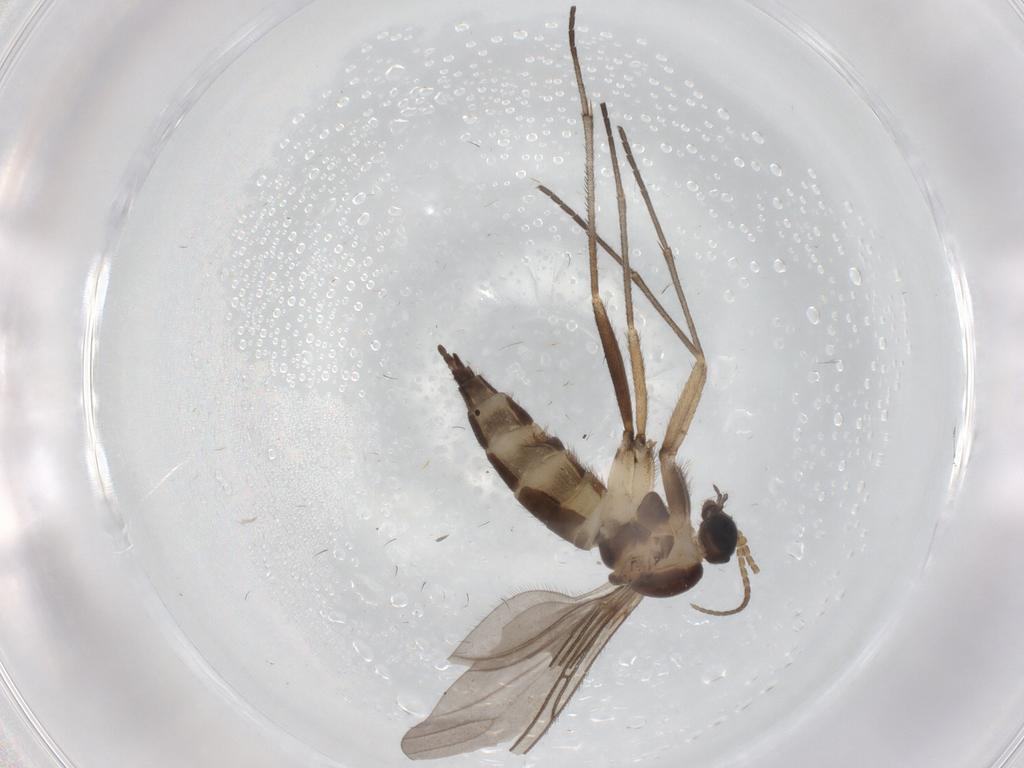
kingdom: Animalia
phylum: Arthropoda
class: Insecta
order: Diptera
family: Sciaridae
